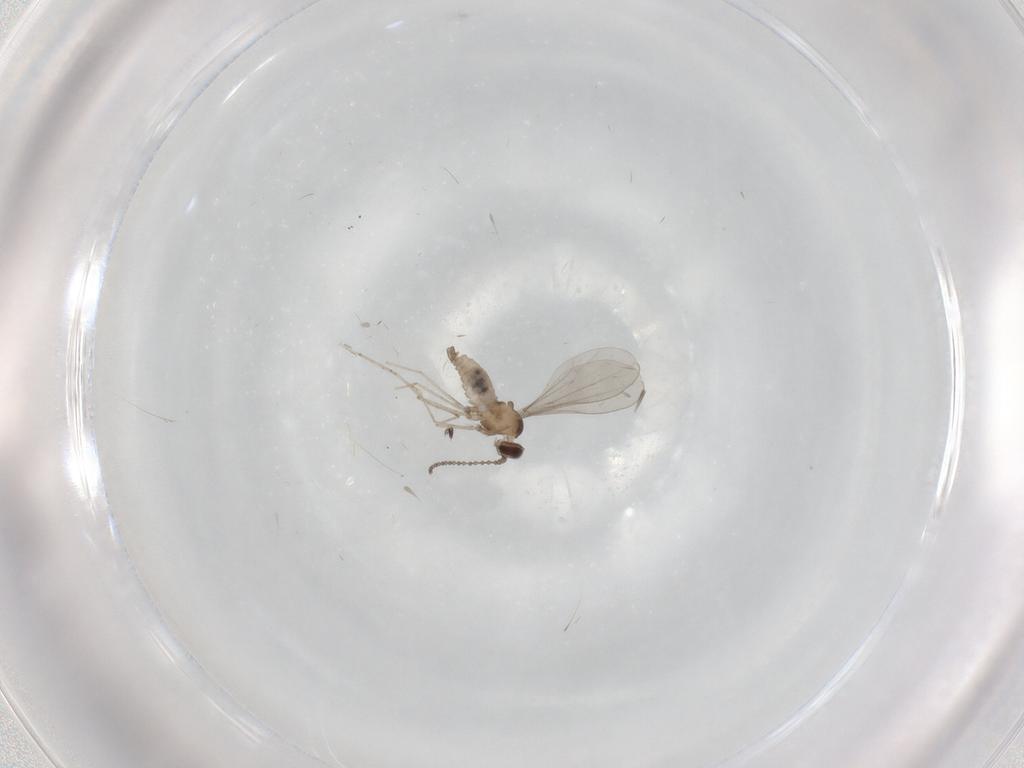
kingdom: Animalia
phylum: Arthropoda
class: Insecta
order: Diptera
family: Cecidomyiidae
